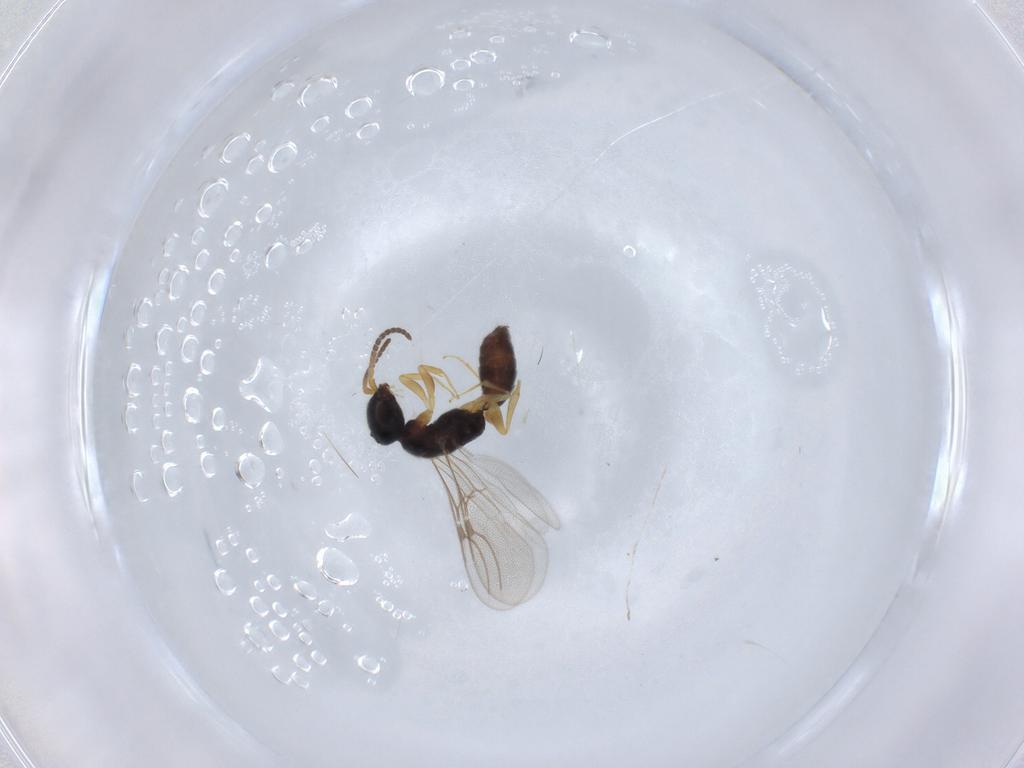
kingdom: Animalia
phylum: Arthropoda
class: Insecta
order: Hymenoptera
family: Bethylidae
